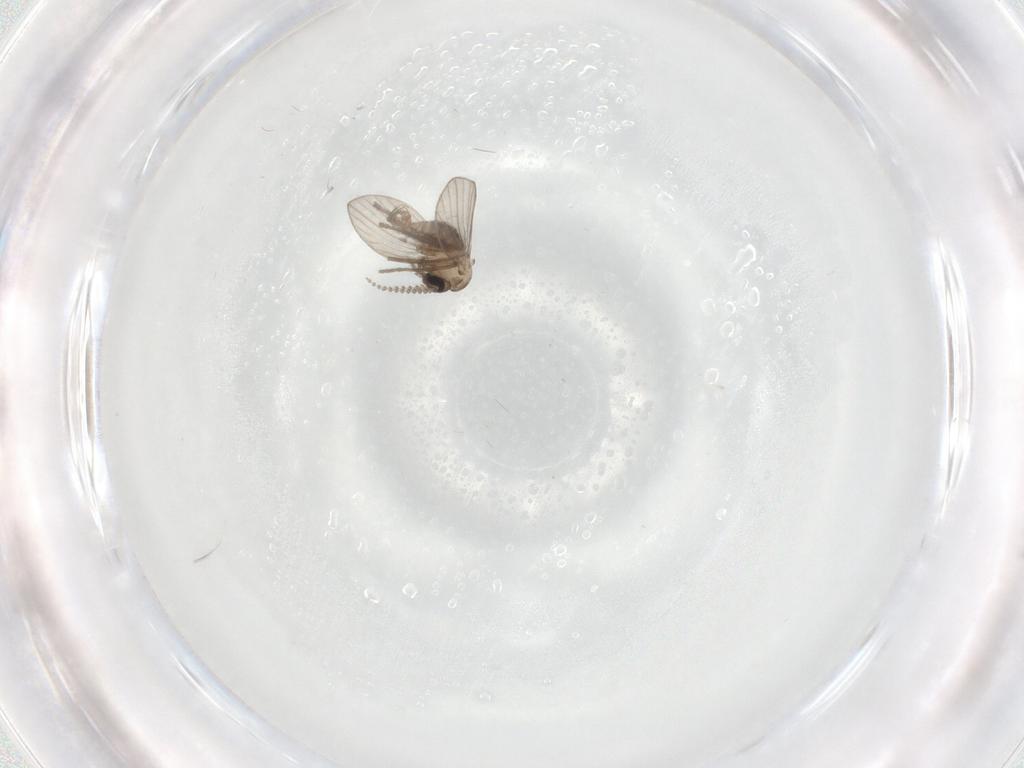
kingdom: Animalia
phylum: Arthropoda
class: Insecta
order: Diptera
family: Psychodidae
